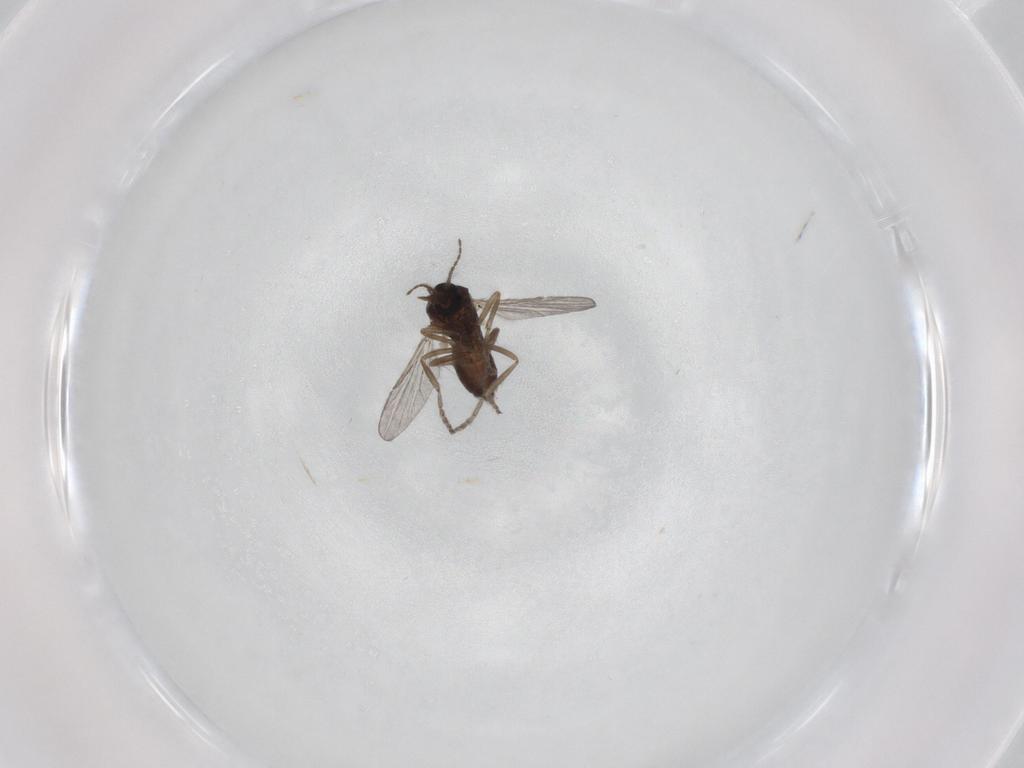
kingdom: Animalia
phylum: Arthropoda
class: Insecta
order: Diptera
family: Ceratopogonidae
